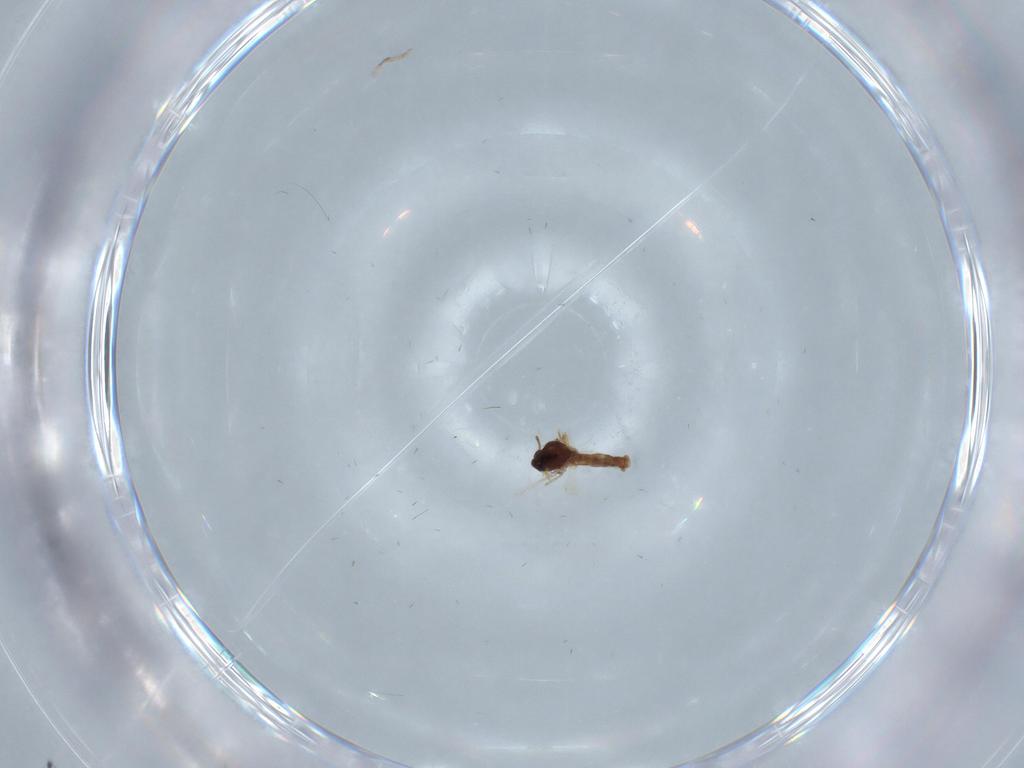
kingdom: Animalia
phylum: Arthropoda
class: Insecta
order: Diptera
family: Ceratopogonidae
